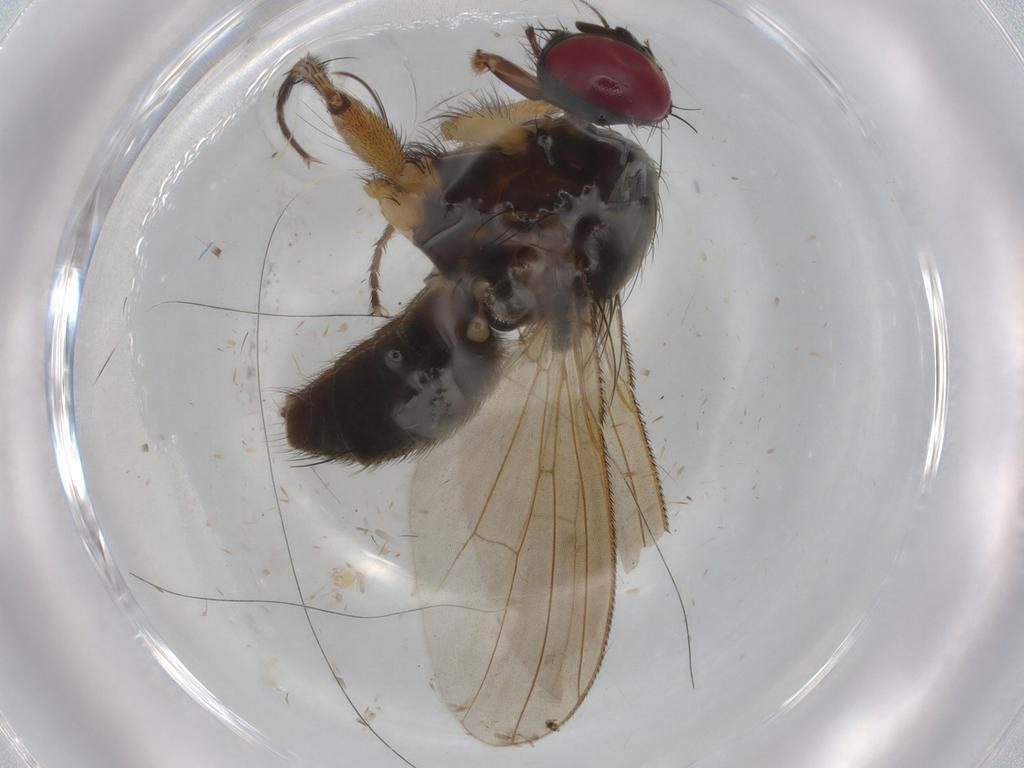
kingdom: Animalia
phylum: Arthropoda
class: Insecta
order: Diptera
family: Muscidae
